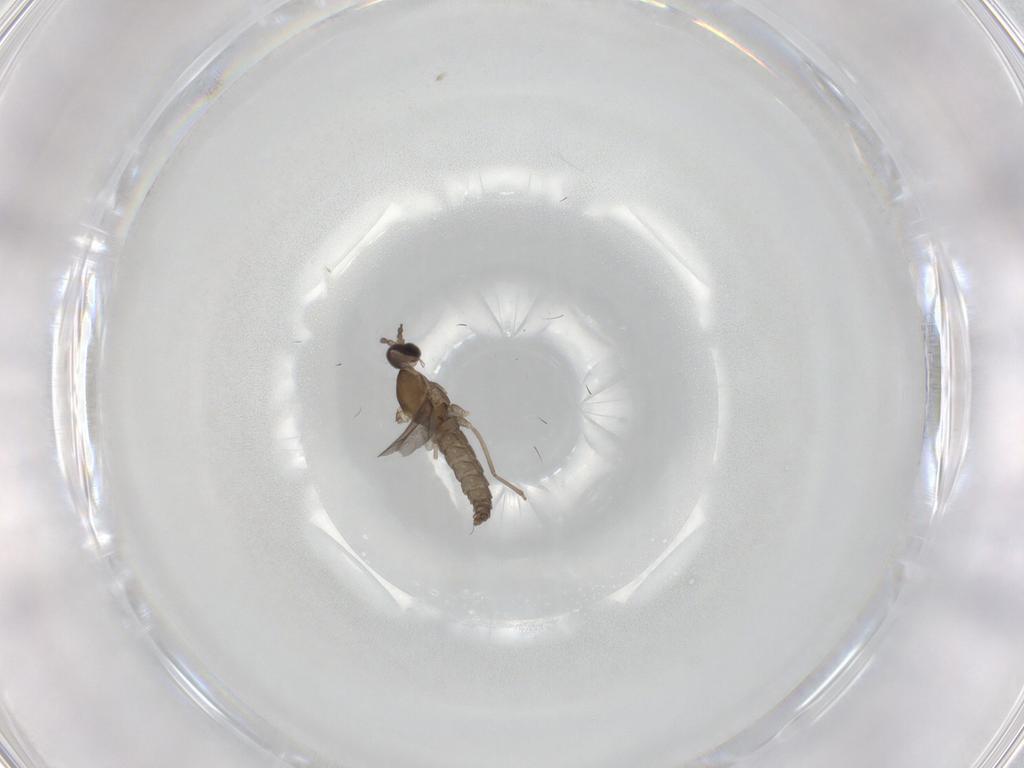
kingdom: Animalia
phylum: Arthropoda
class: Insecta
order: Diptera
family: Cecidomyiidae
